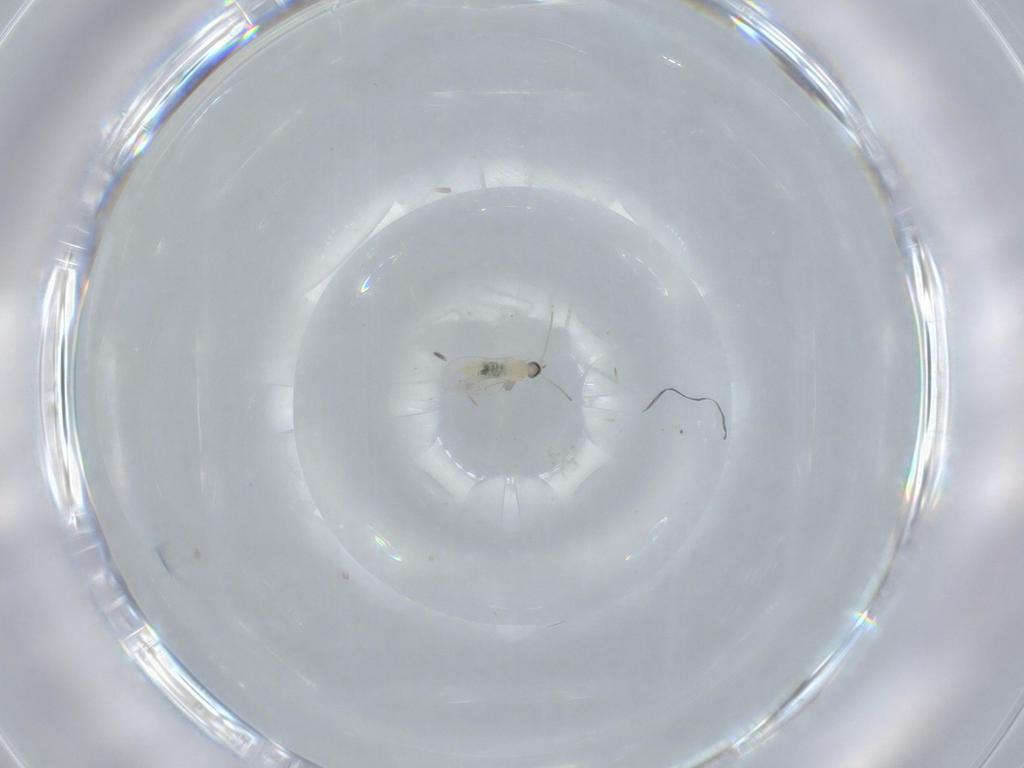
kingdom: Animalia
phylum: Arthropoda
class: Insecta
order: Diptera
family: Cecidomyiidae
